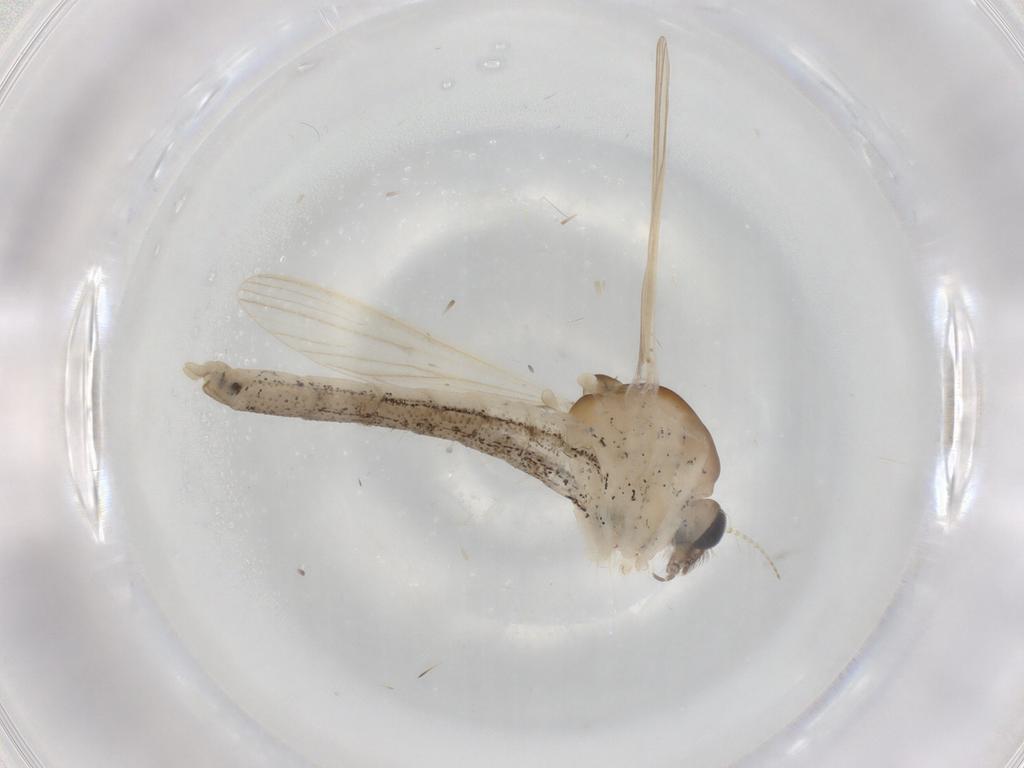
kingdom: Animalia
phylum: Arthropoda
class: Insecta
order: Diptera
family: Ceratopogonidae
